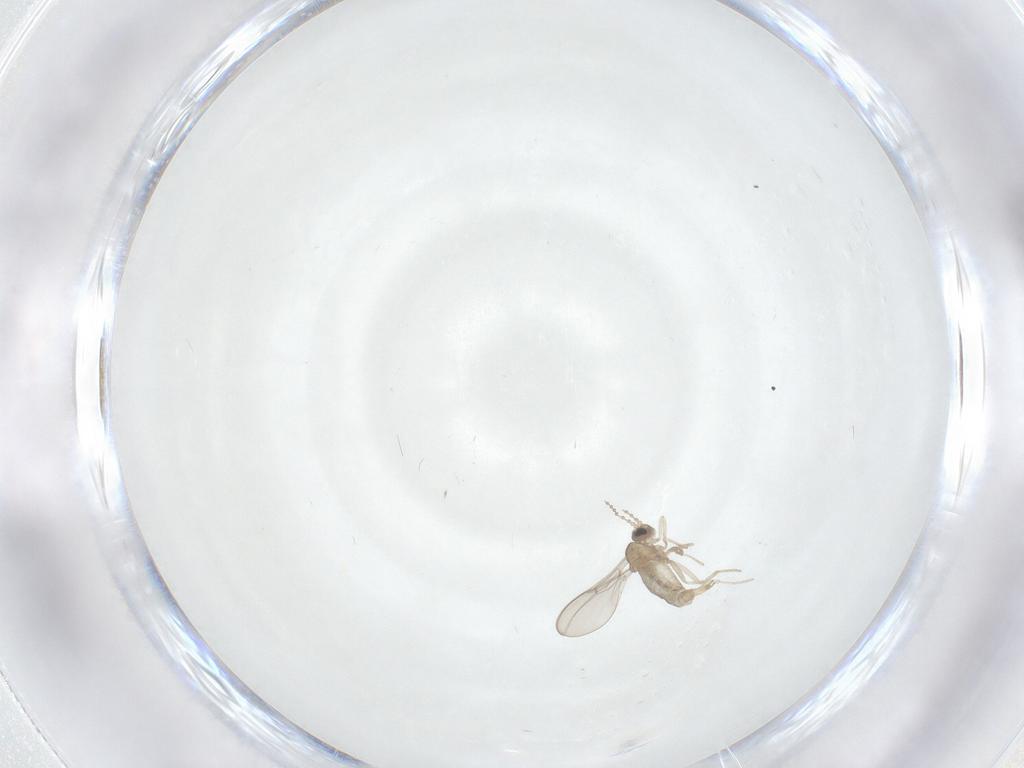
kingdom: Animalia
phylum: Arthropoda
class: Insecta
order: Diptera
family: Cecidomyiidae
